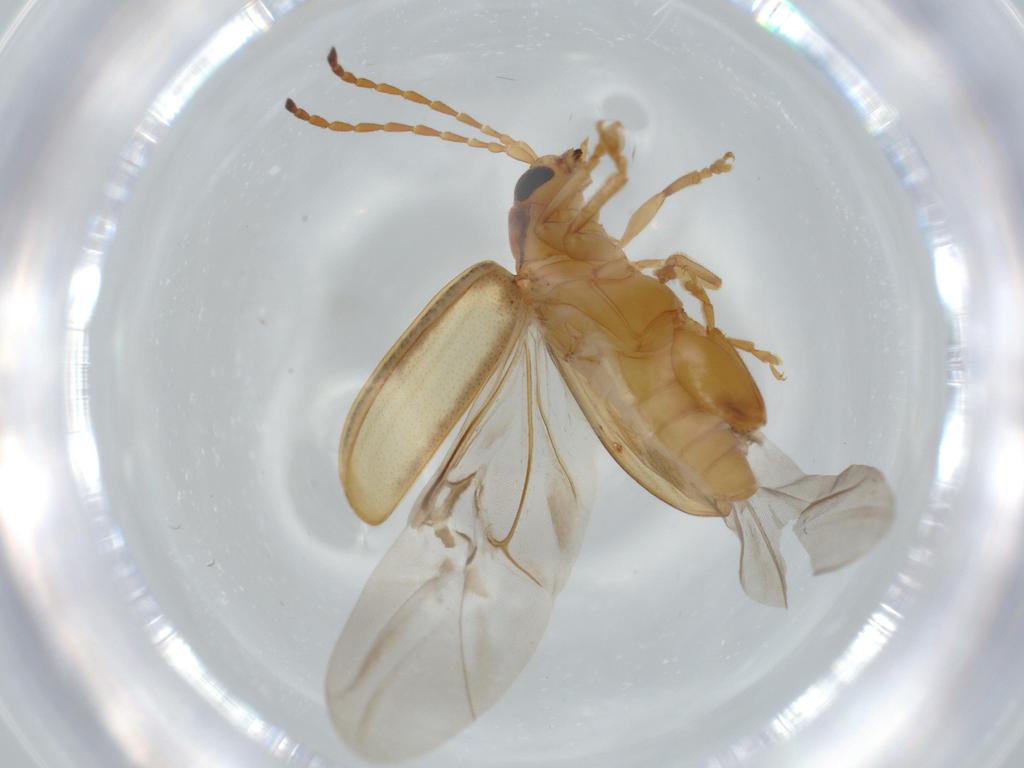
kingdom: Animalia
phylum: Arthropoda
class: Insecta
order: Coleoptera
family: Chrysomelidae
